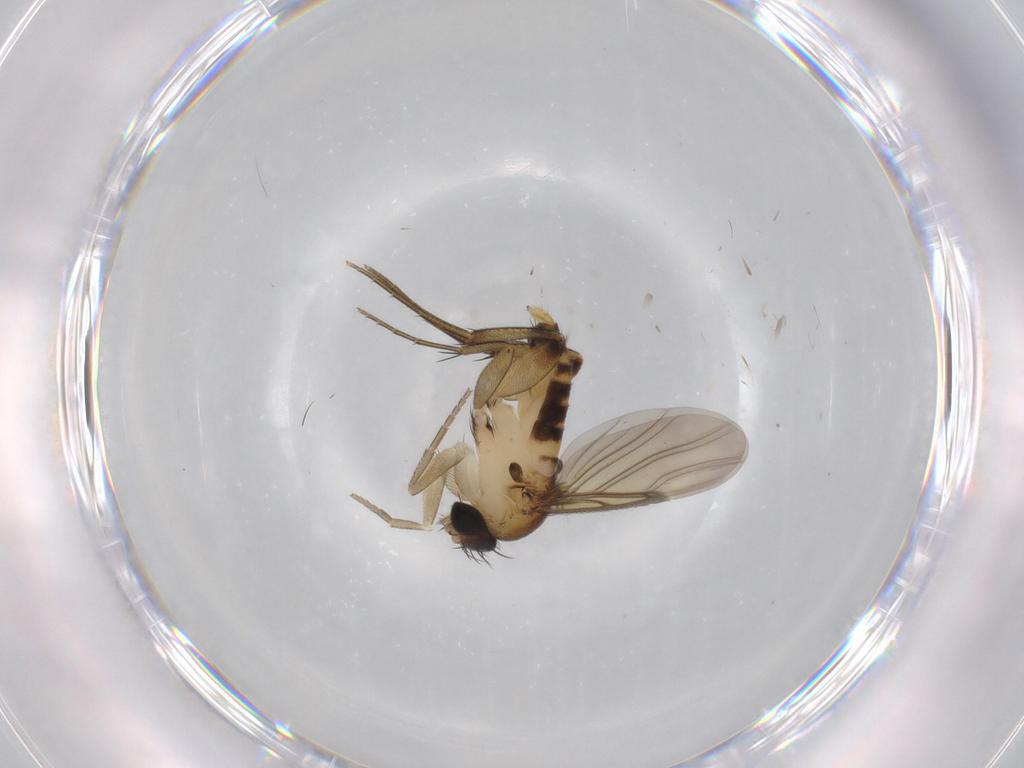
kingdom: Animalia
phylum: Arthropoda
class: Insecta
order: Diptera
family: Phoridae
